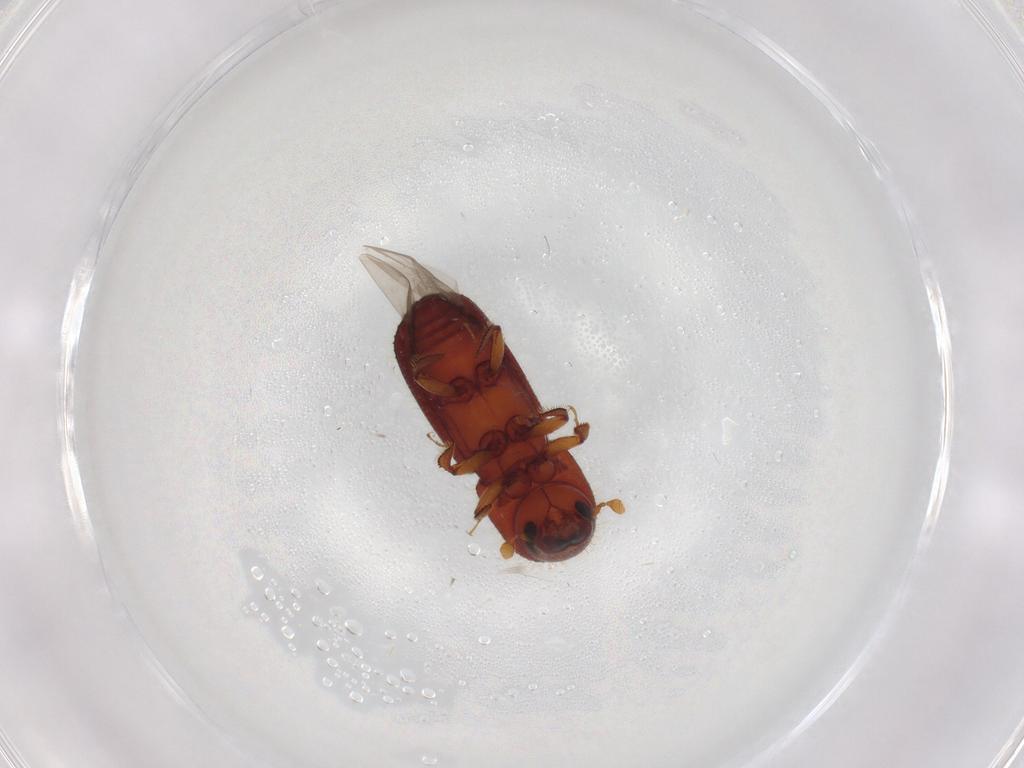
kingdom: Animalia
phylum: Arthropoda
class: Insecta
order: Coleoptera
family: Curculionidae
